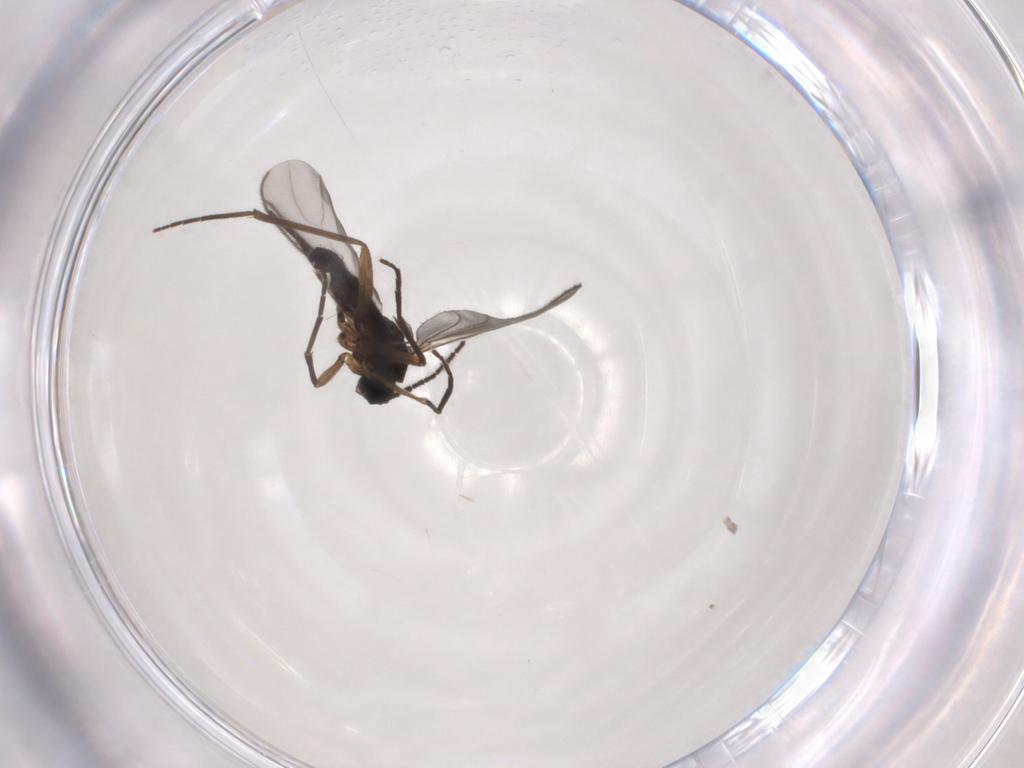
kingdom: Animalia
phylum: Arthropoda
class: Insecta
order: Diptera
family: Sciaridae
